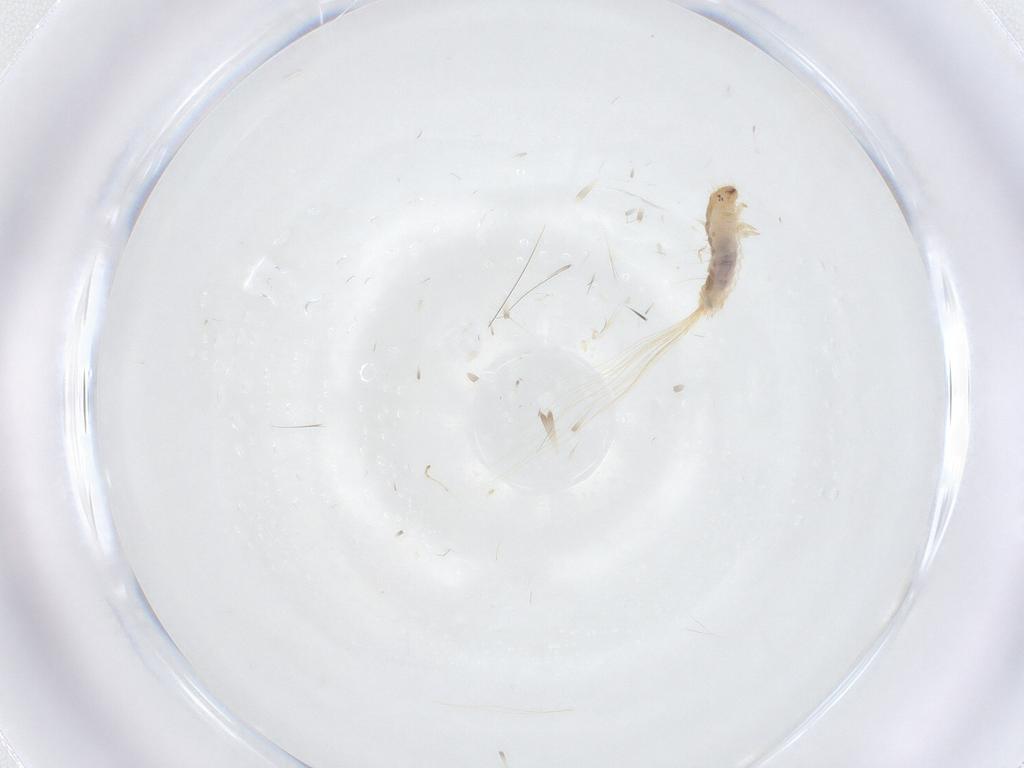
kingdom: Animalia
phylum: Arthropoda
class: Insecta
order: Coleoptera
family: Dermestidae
